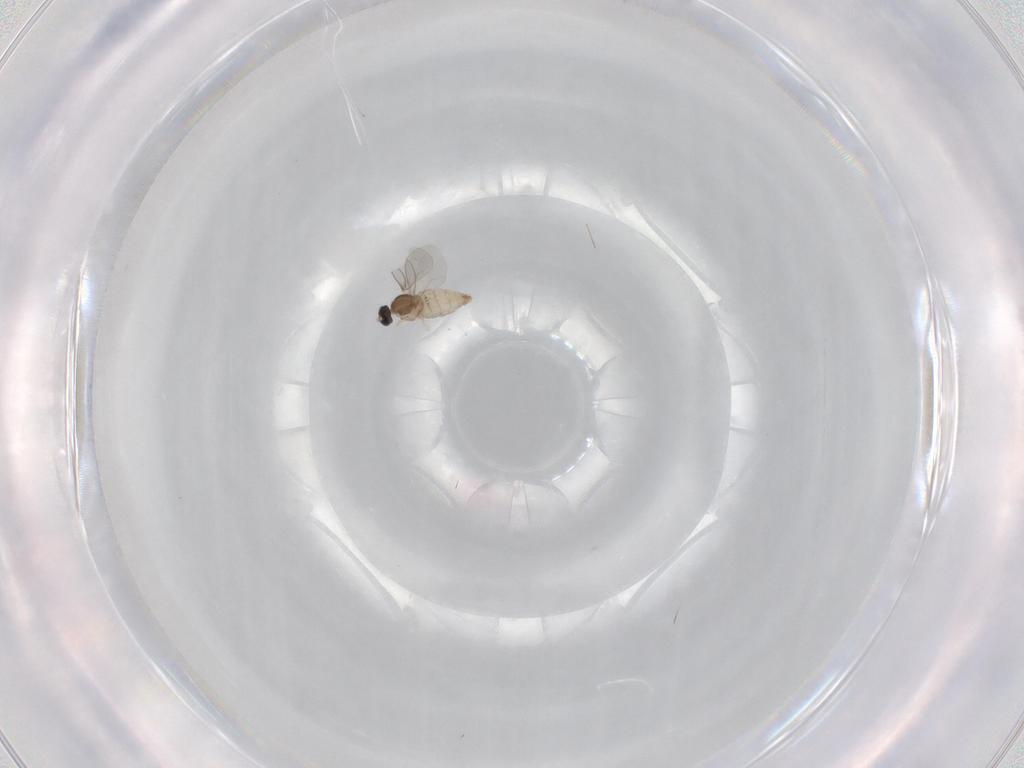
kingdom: Animalia
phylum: Arthropoda
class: Insecta
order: Diptera
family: Cecidomyiidae
